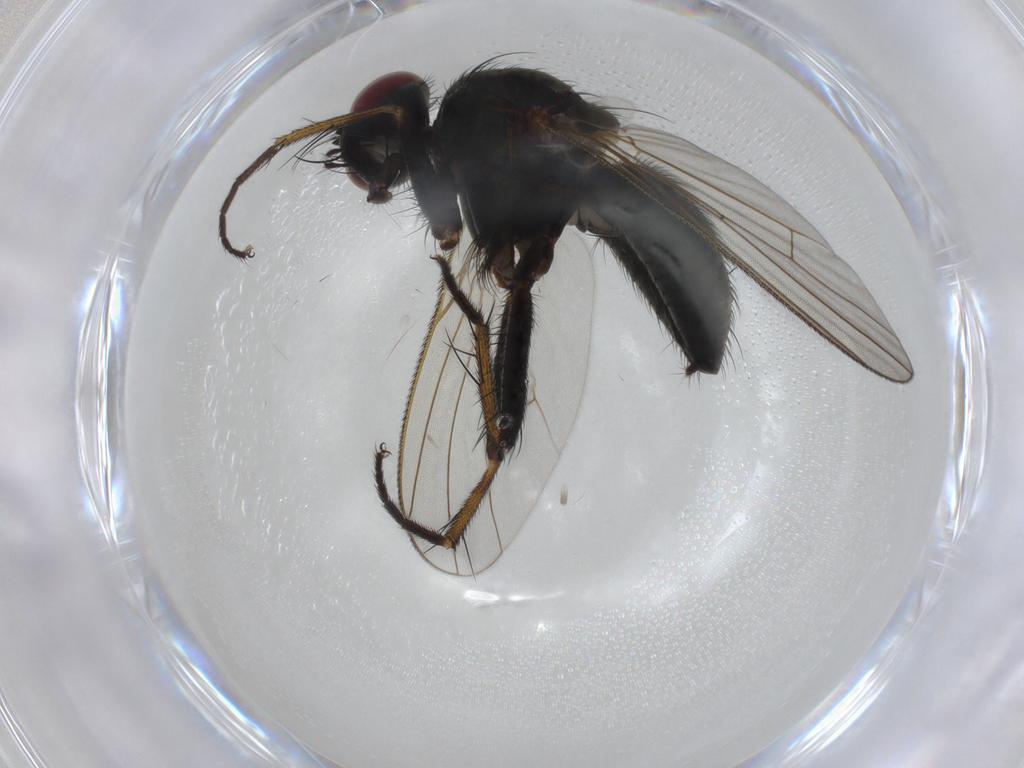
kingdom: Animalia
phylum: Arthropoda
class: Insecta
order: Diptera
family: Muscidae
